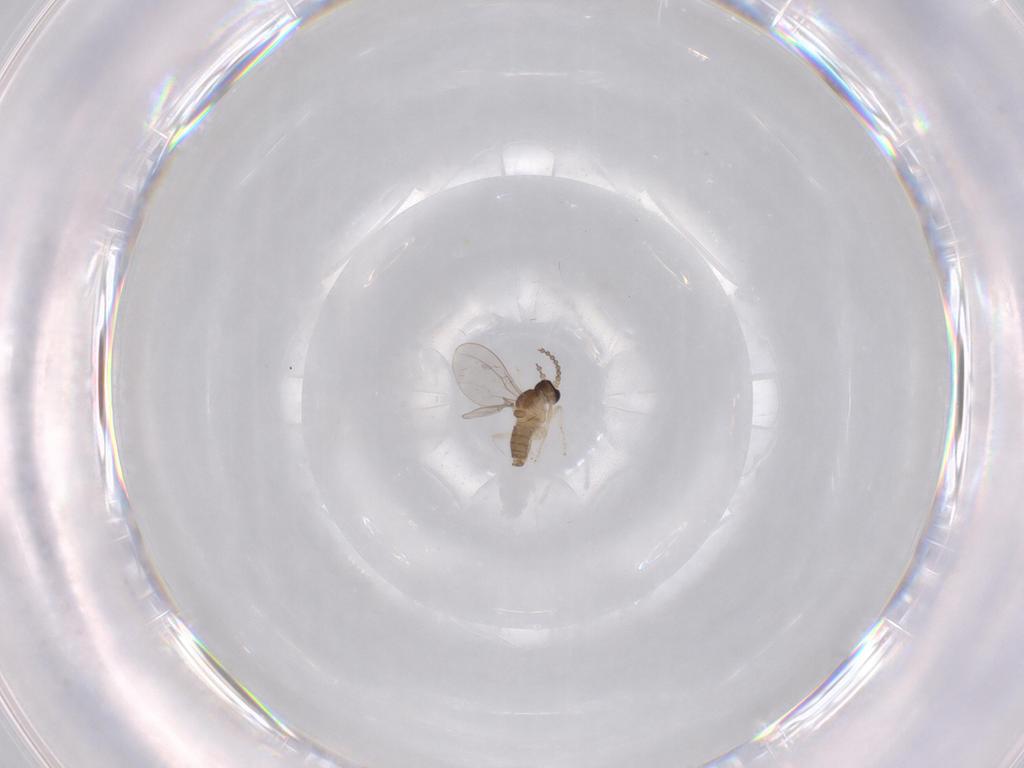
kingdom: Animalia
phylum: Arthropoda
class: Insecta
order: Diptera
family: Cecidomyiidae
